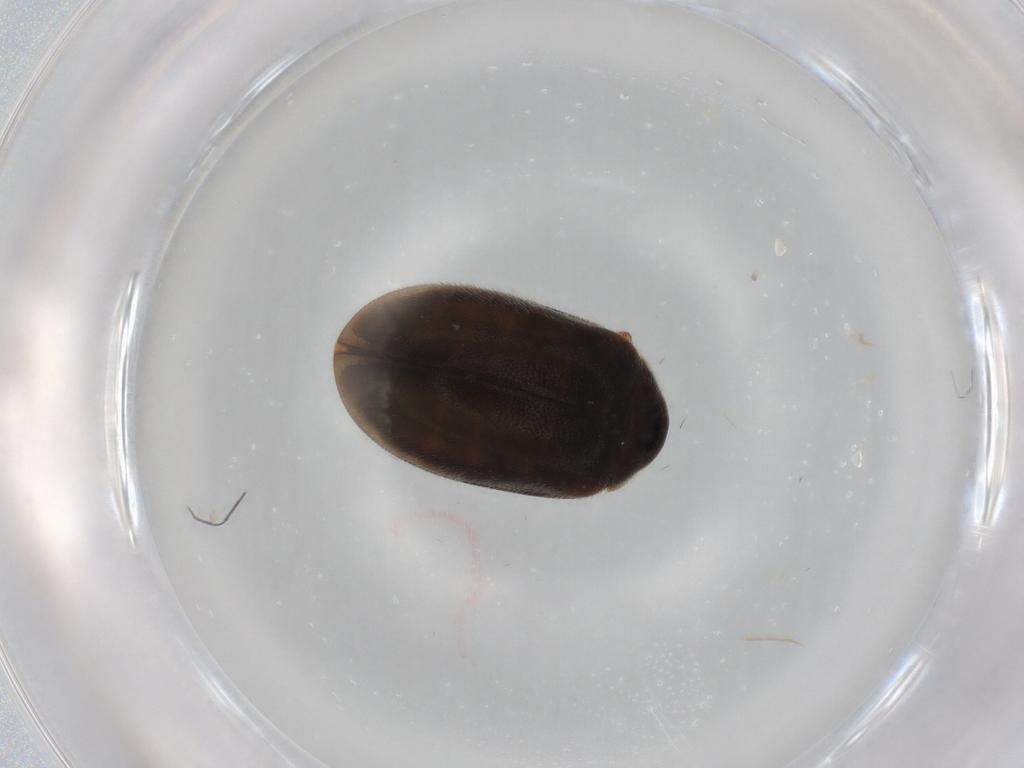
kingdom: Animalia
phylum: Arthropoda
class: Insecta
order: Coleoptera
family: Scirtidae
